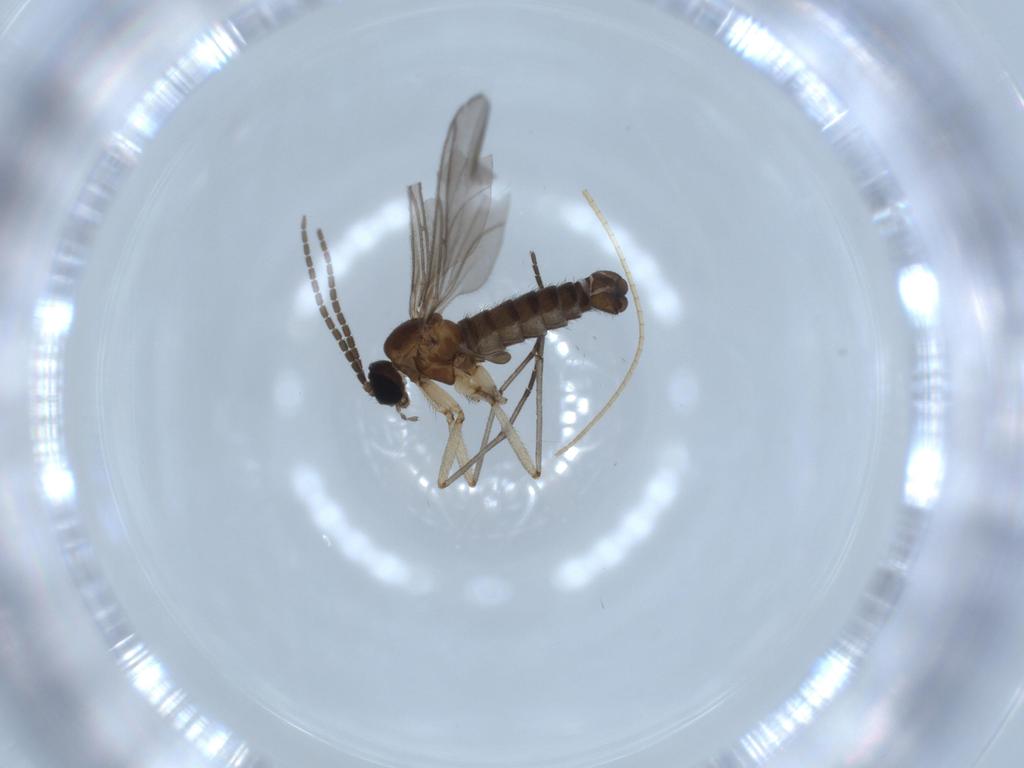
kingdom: Animalia
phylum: Arthropoda
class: Insecta
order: Diptera
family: Sciaridae
